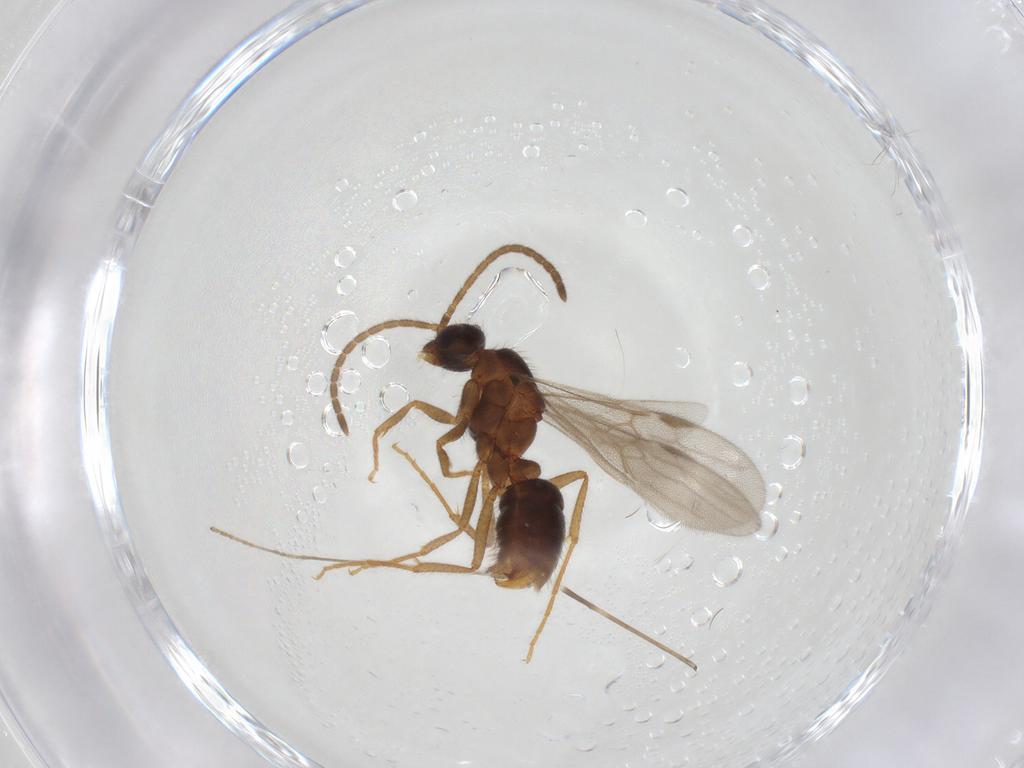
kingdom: Animalia
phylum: Arthropoda
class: Insecta
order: Hymenoptera
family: Formicidae
